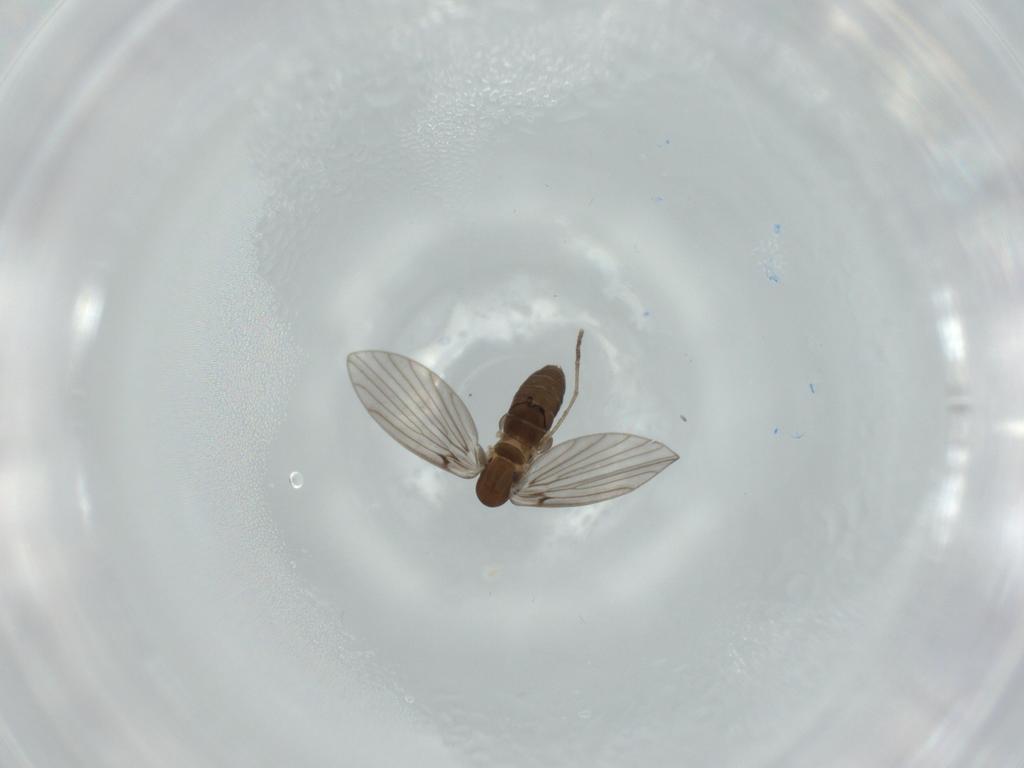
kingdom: Animalia
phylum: Arthropoda
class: Insecta
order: Diptera
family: Psychodidae
